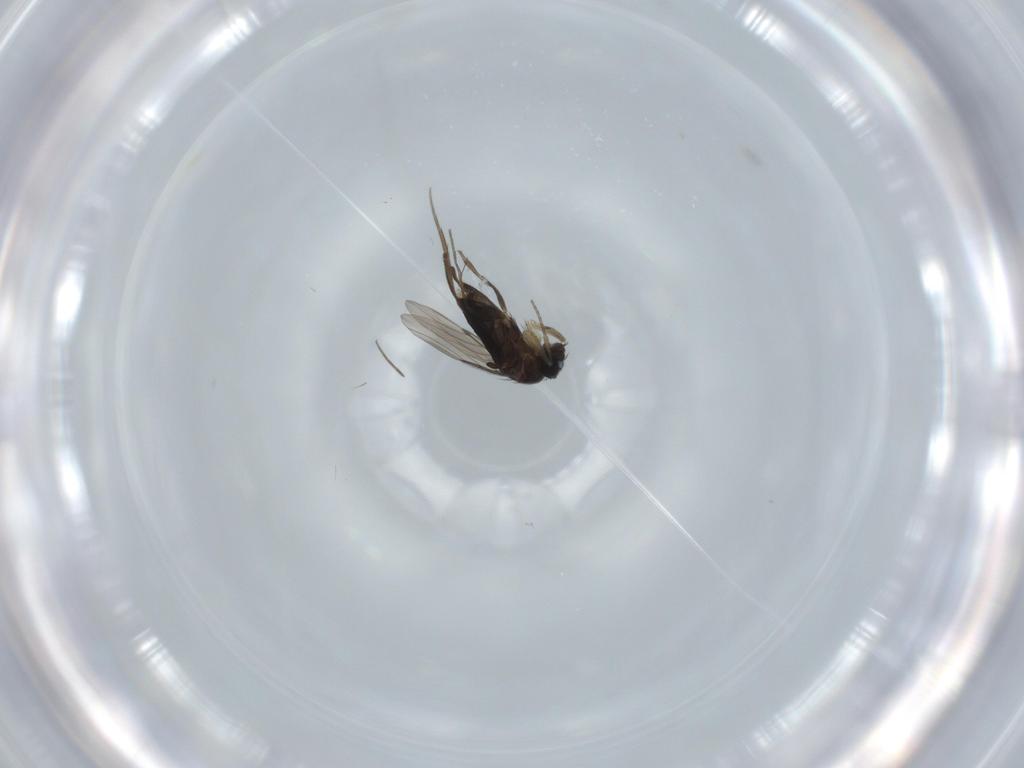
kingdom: Animalia
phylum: Arthropoda
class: Insecta
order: Diptera
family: Phoridae
